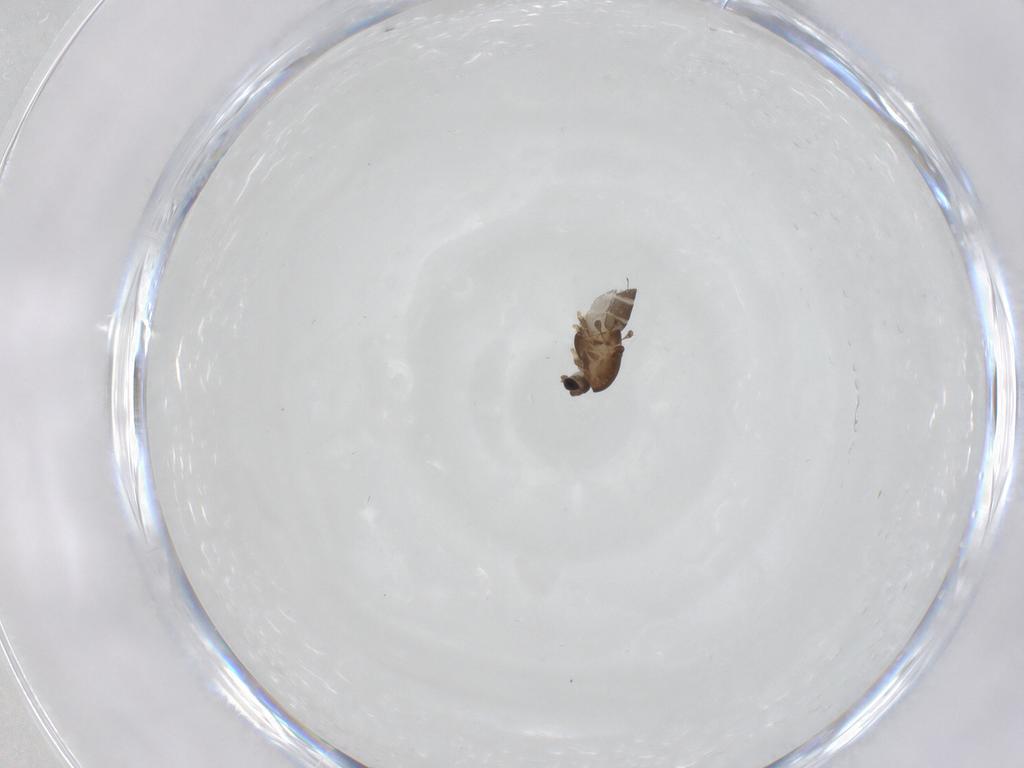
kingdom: Animalia
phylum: Arthropoda
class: Insecta
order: Diptera
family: Chironomidae
